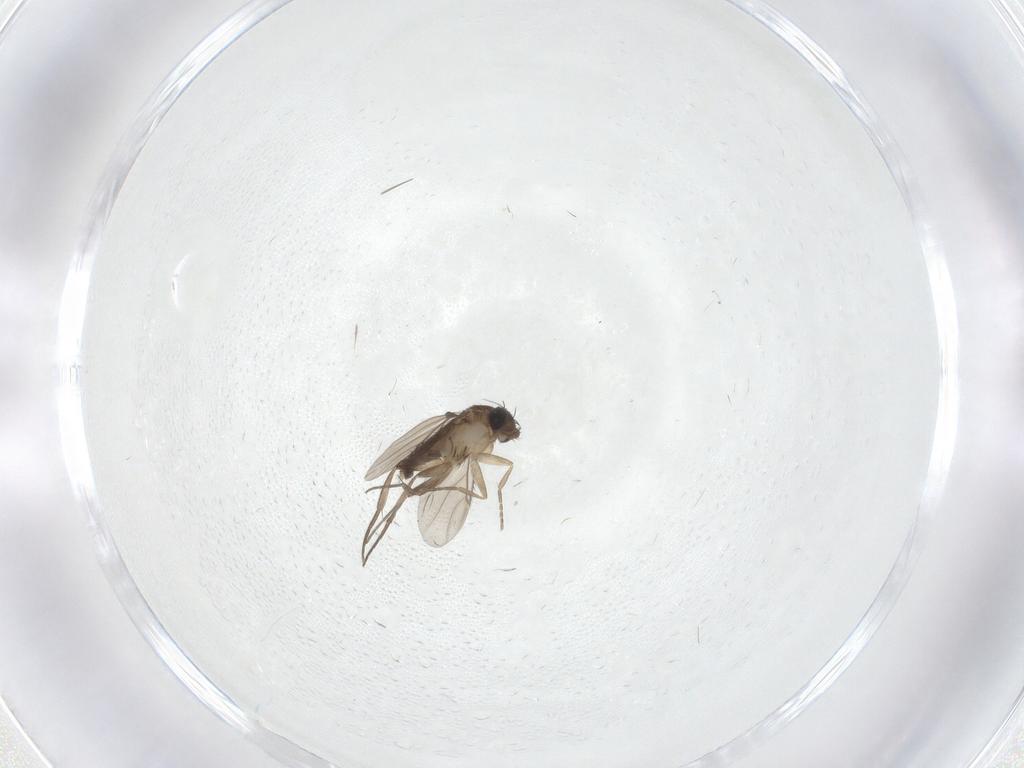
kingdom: Animalia
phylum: Arthropoda
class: Insecta
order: Diptera
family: Phoridae
